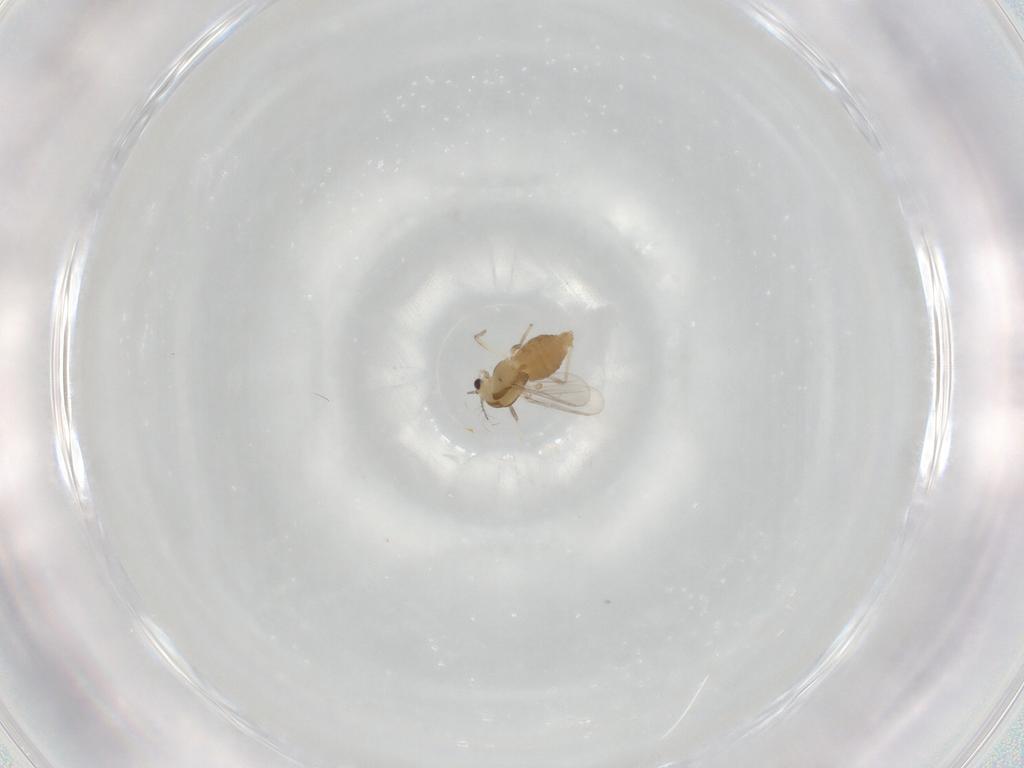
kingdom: Animalia
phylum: Arthropoda
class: Insecta
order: Diptera
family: Chironomidae
